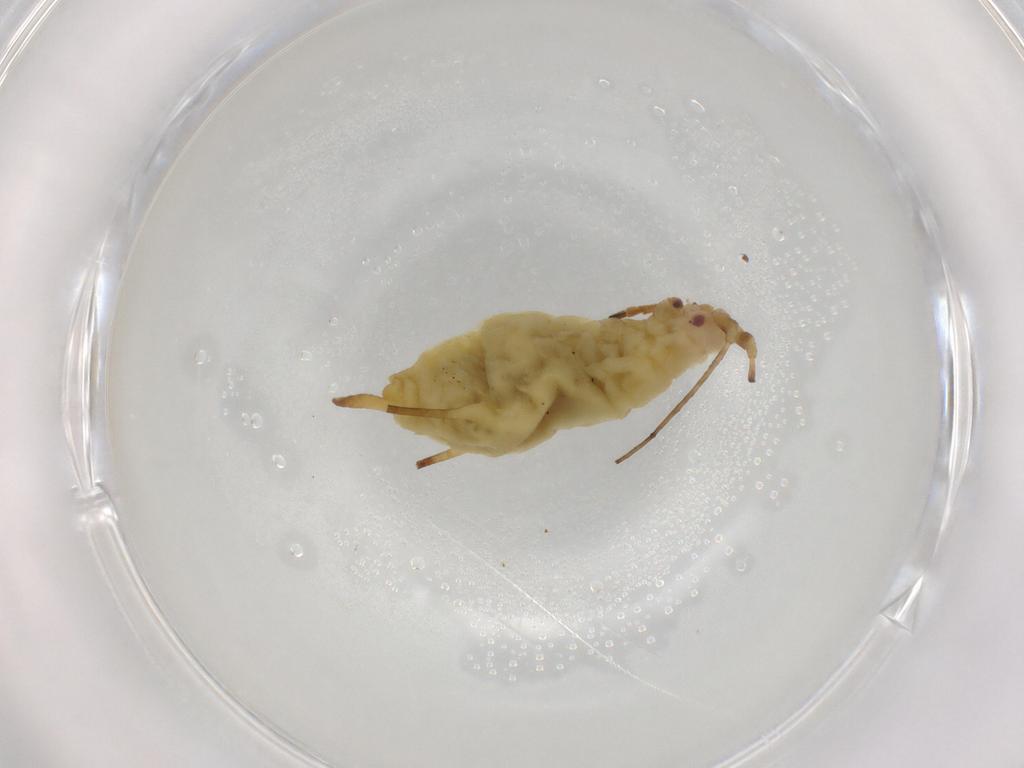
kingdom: Animalia
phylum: Arthropoda
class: Insecta
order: Hemiptera
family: Aphididae
